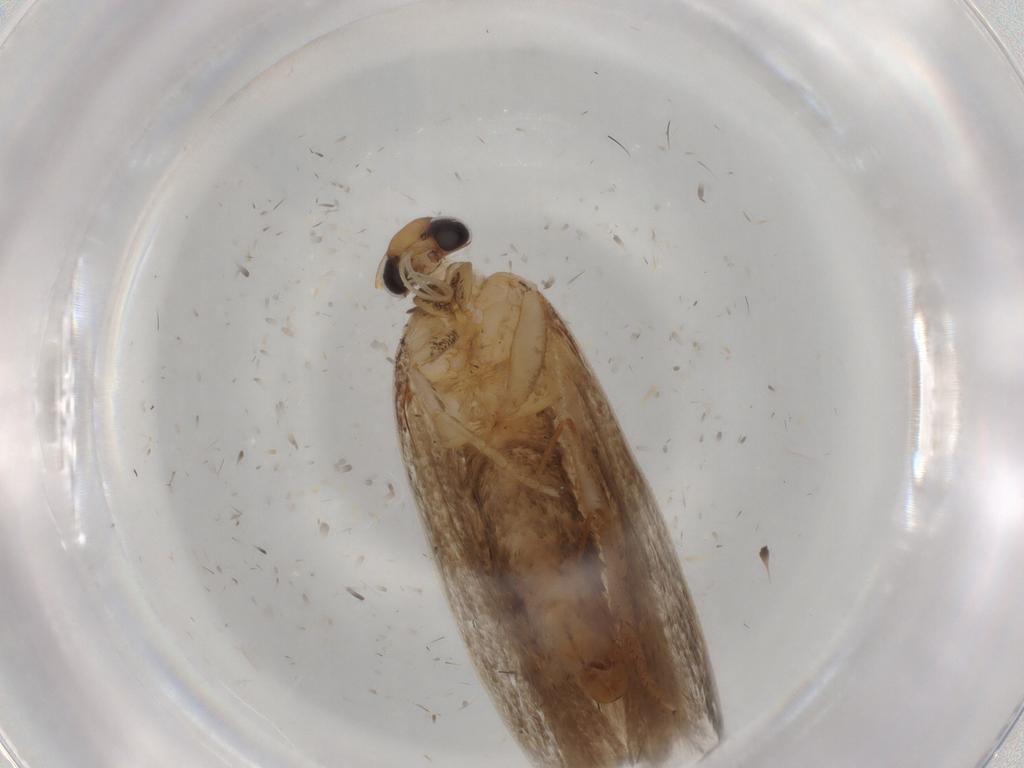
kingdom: Animalia
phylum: Arthropoda
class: Insecta
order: Lepidoptera
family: Gelechiidae
